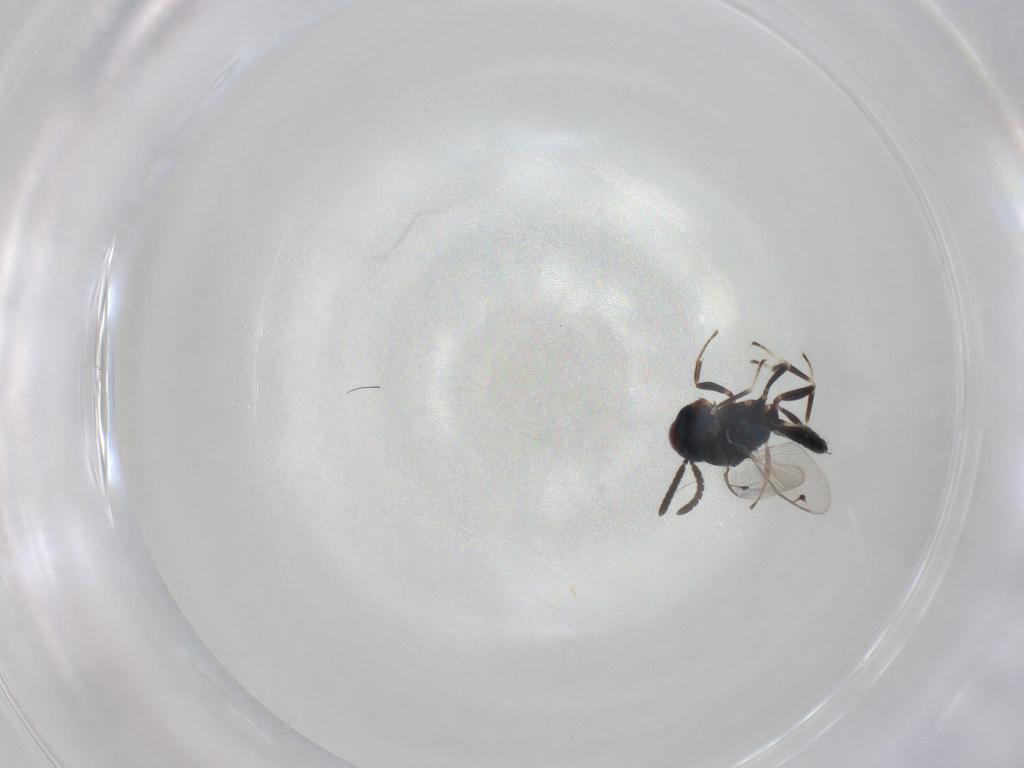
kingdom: Animalia
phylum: Arthropoda
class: Insecta
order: Hymenoptera
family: Pteromalidae
